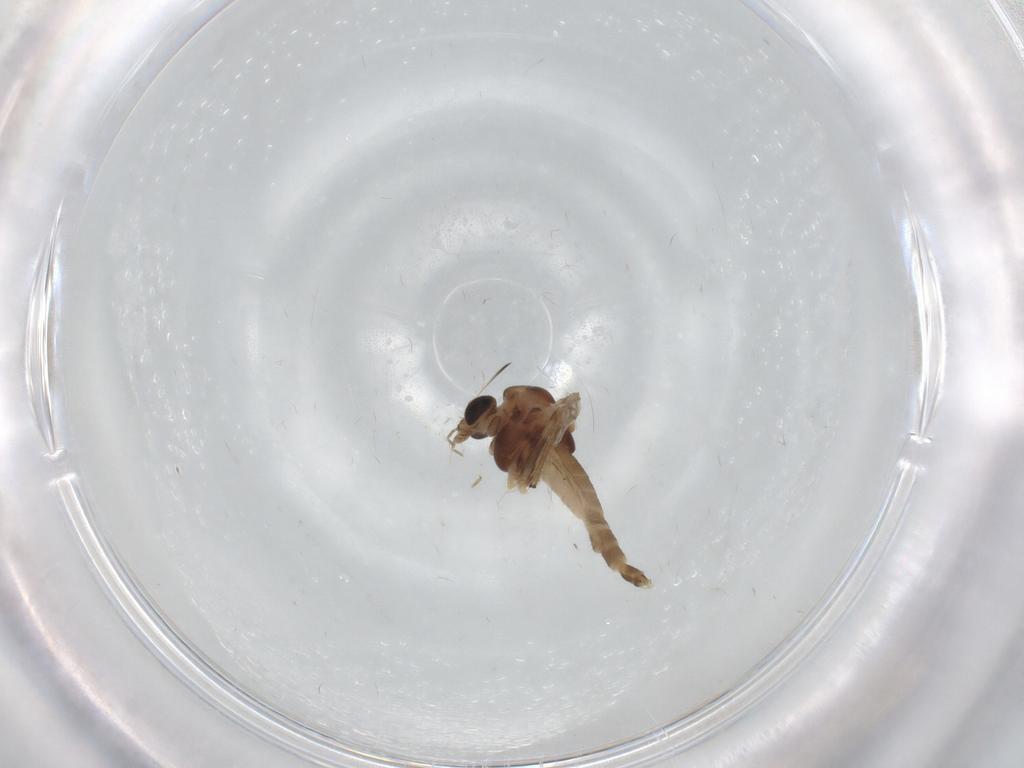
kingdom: Animalia
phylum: Arthropoda
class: Insecta
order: Diptera
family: Chironomidae
